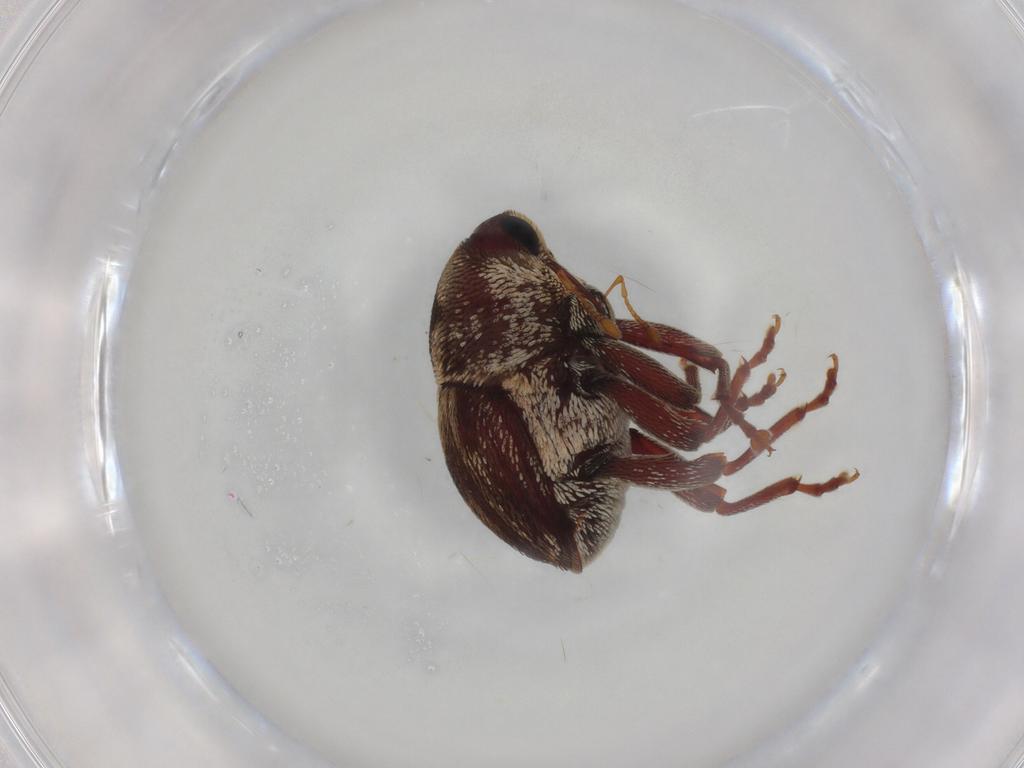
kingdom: Animalia
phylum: Arthropoda
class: Insecta
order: Coleoptera
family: Curculionidae
